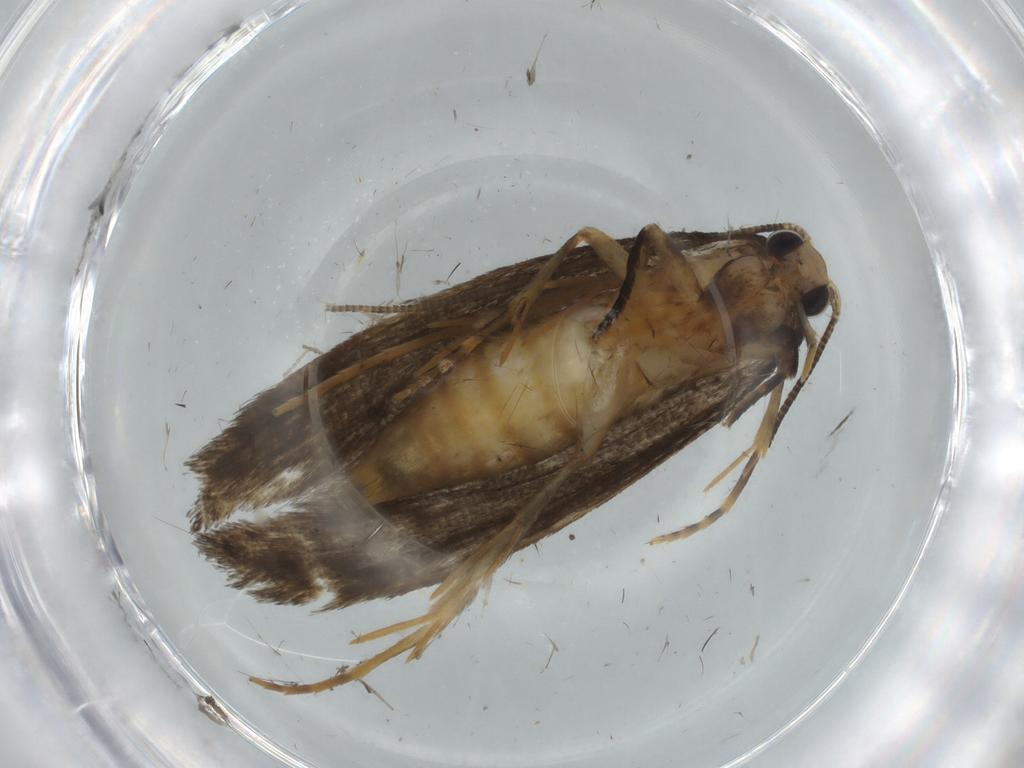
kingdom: Animalia
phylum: Arthropoda
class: Insecta
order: Lepidoptera
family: Tineidae
